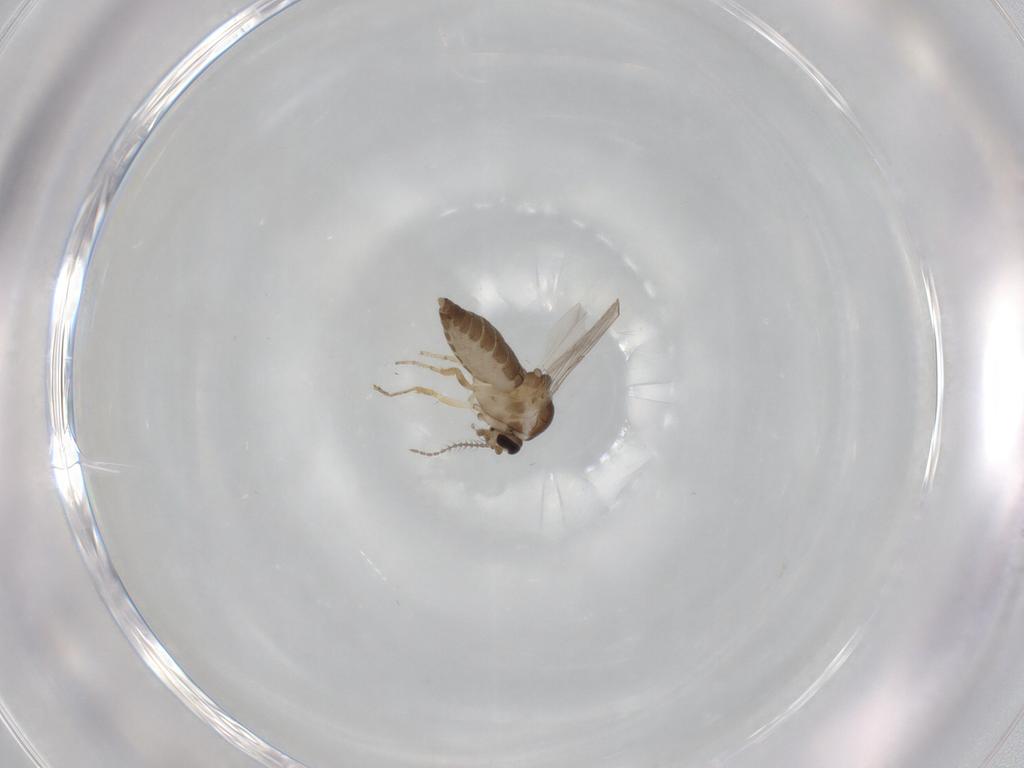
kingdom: Animalia
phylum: Arthropoda
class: Insecta
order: Diptera
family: Ceratopogonidae
